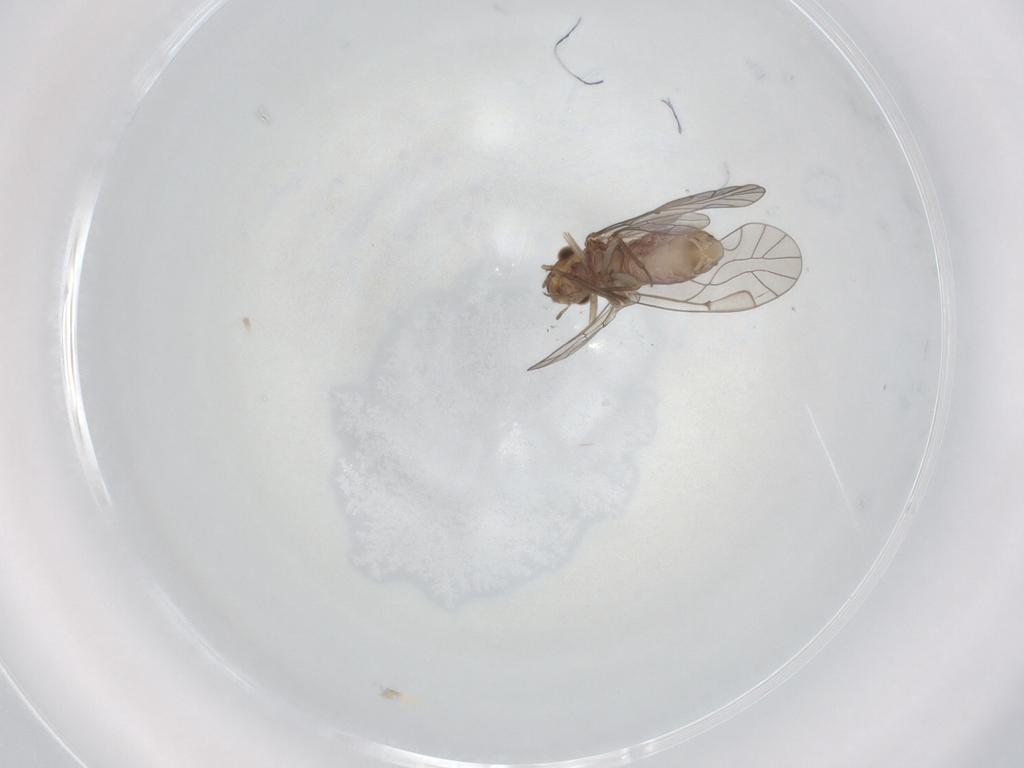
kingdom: Animalia
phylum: Arthropoda
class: Insecta
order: Psocodea
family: Lachesillidae
